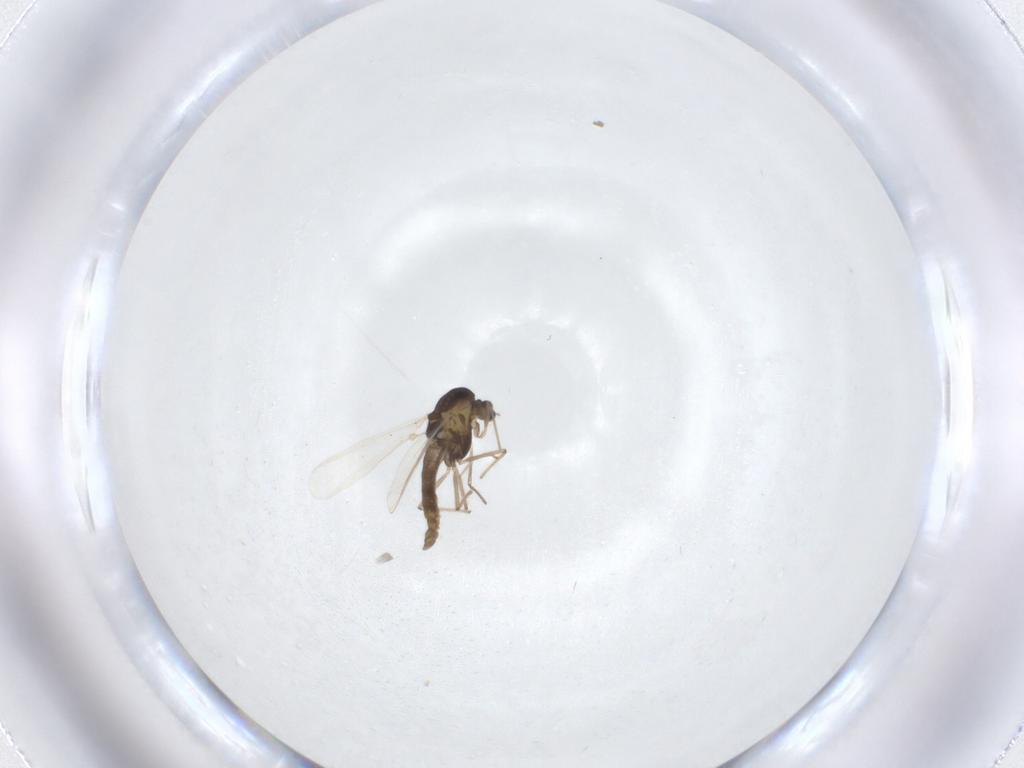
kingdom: Animalia
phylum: Arthropoda
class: Insecta
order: Diptera
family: Chironomidae
